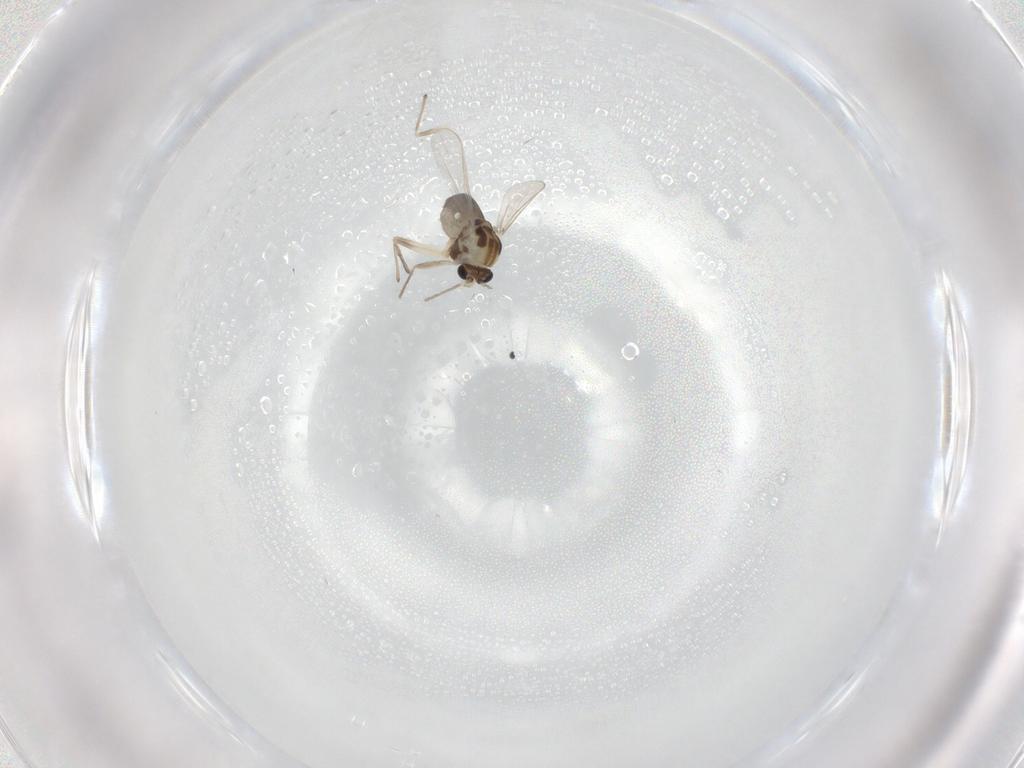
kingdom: Animalia
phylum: Arthropoda
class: Insecta
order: Diptera
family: Chironomidae
